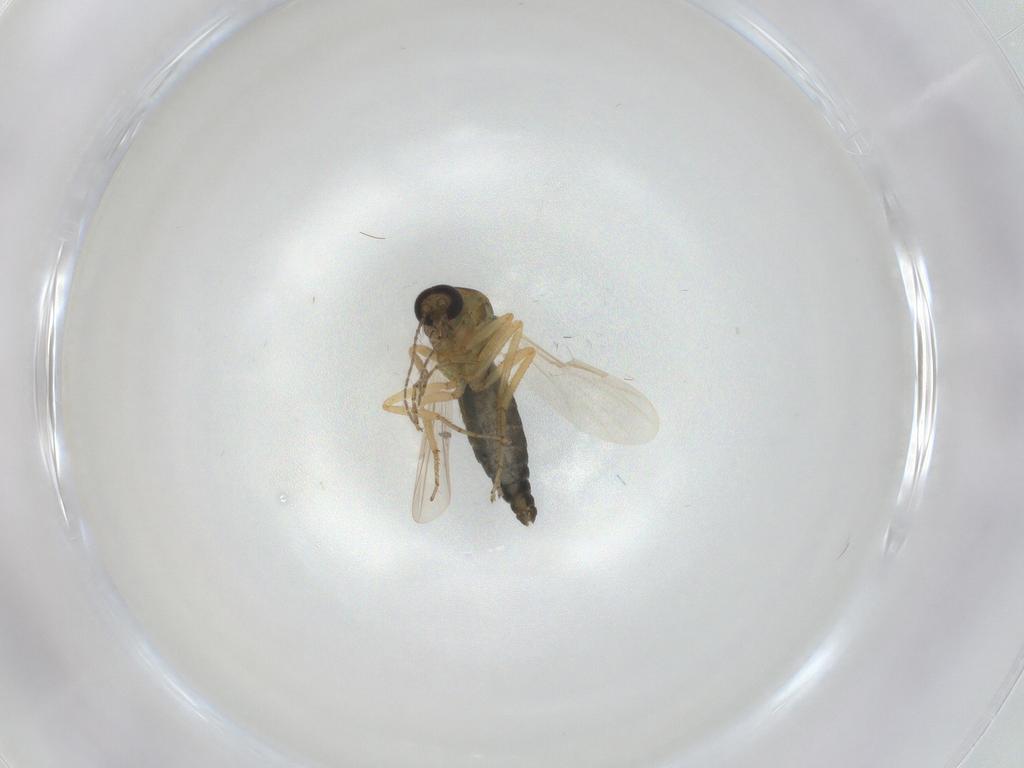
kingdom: Animalia
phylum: Arthropoda
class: Insecta
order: Diptera
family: Ceratopogonidae
